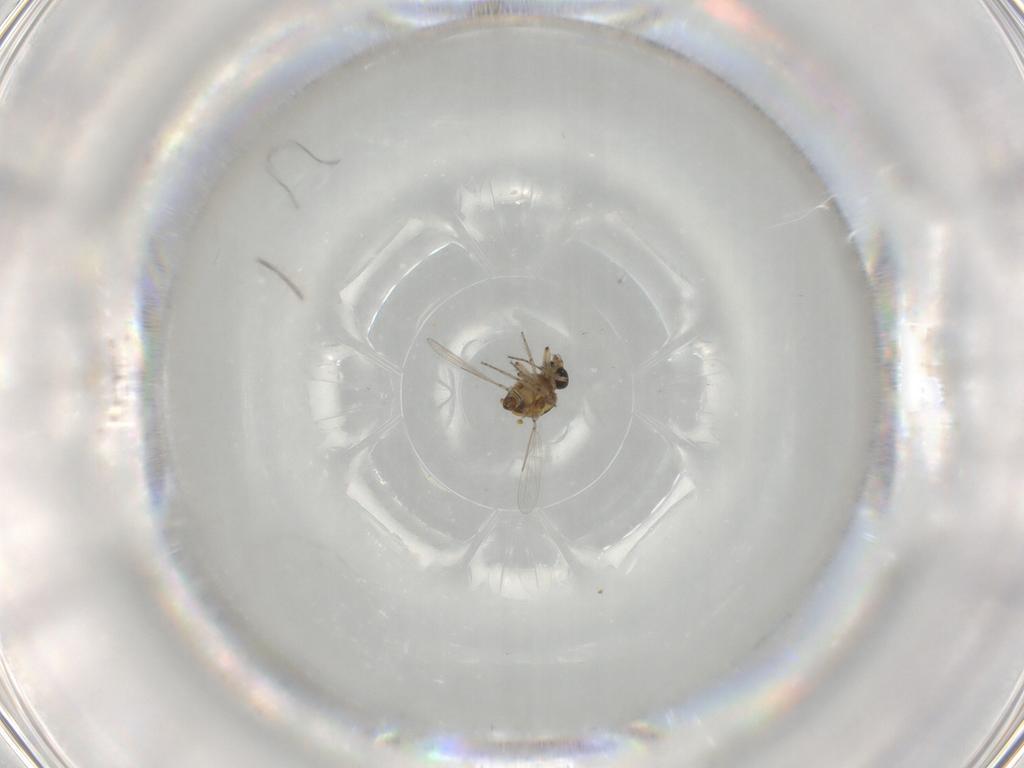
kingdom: Animalia
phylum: Arthropoda
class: Insecta
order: Diptera
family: Ceratopogonidae
